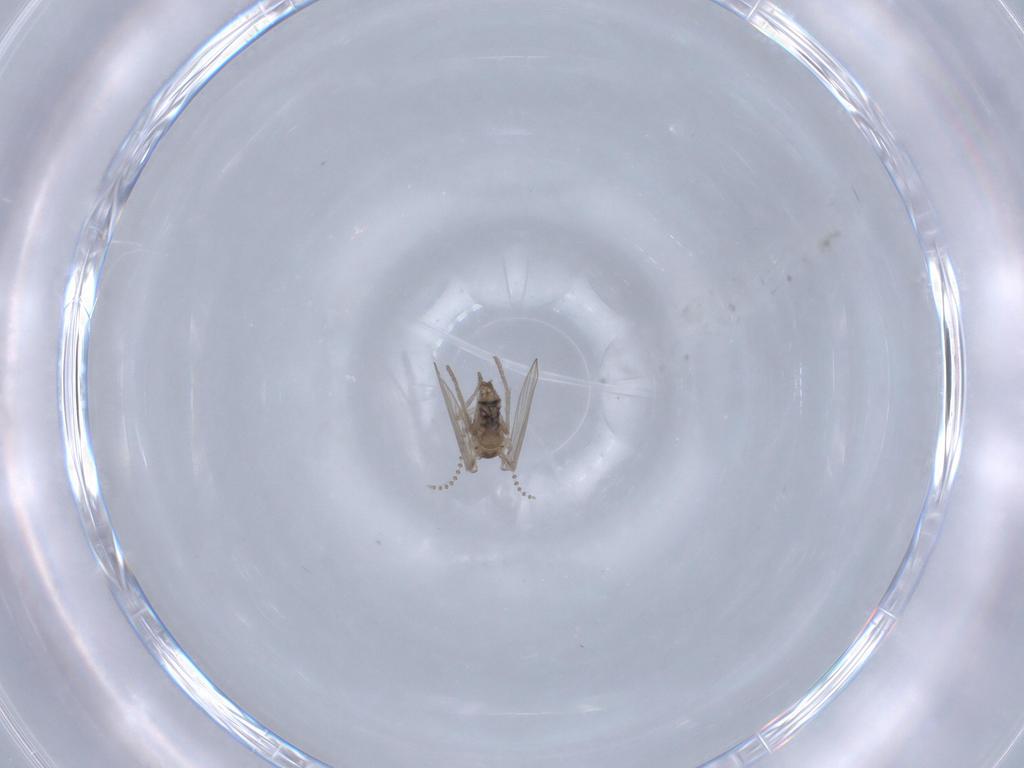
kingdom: Animalia
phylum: Arthropoda
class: Insecta
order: Diptera
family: Psychodidae
